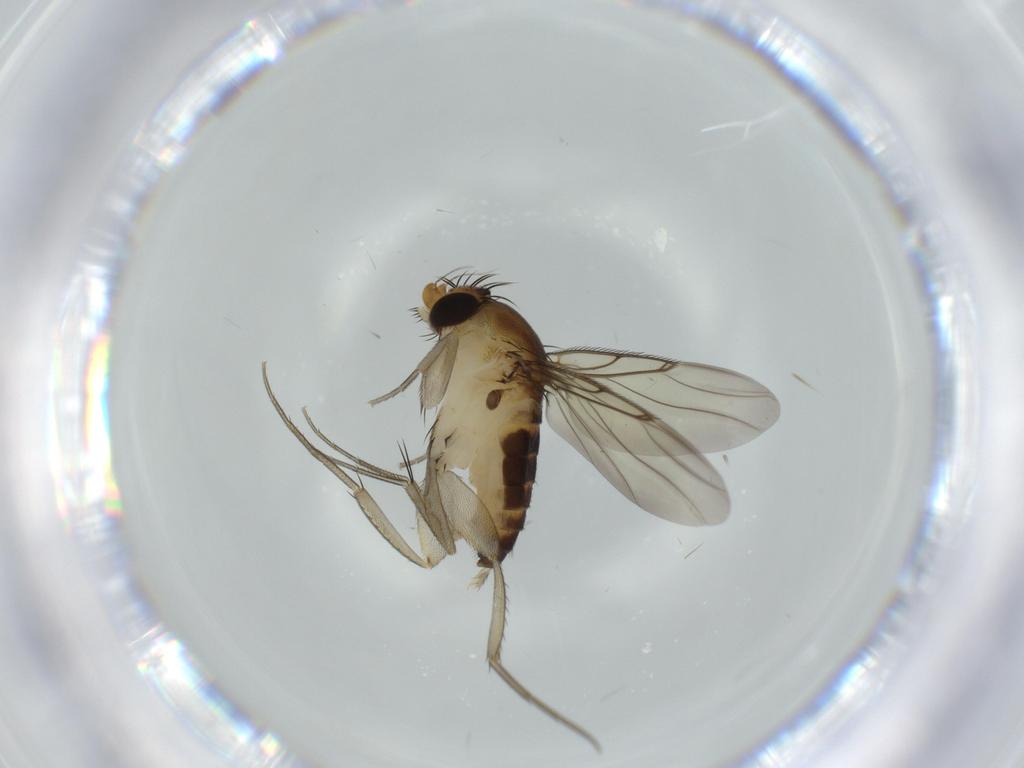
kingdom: Animalia
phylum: Arthropoda
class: Insecta
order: Diptera
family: Phoridae
